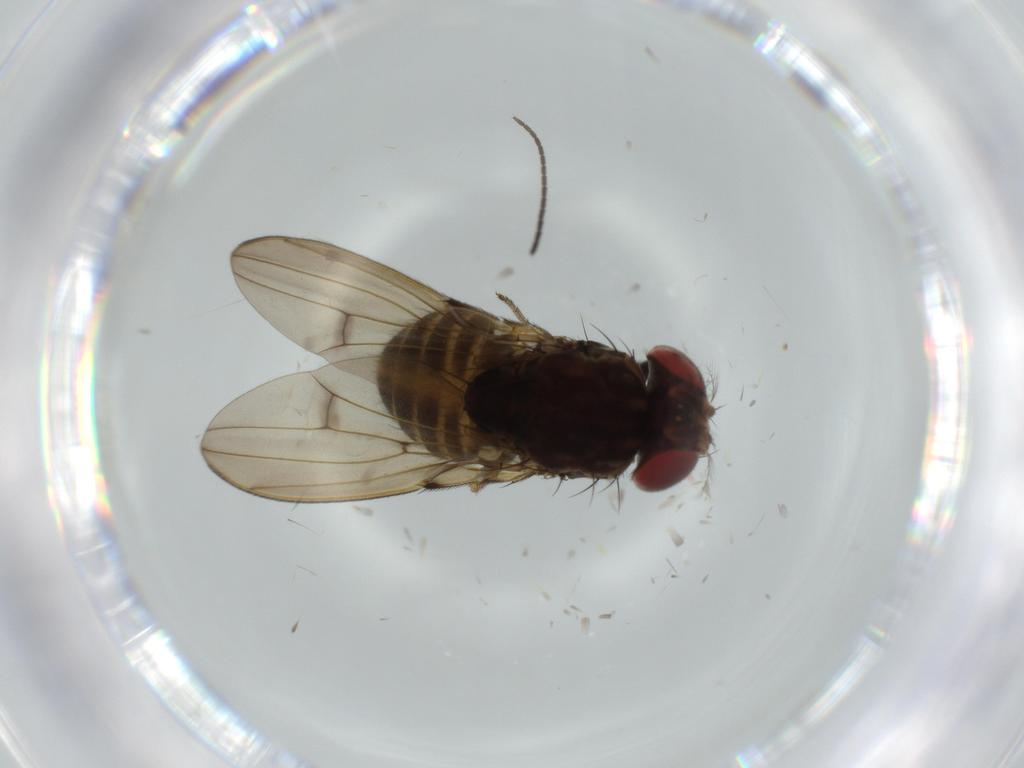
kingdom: Animalia
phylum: Arthropoda
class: Insecta
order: Diptera
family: Drosophilidae
